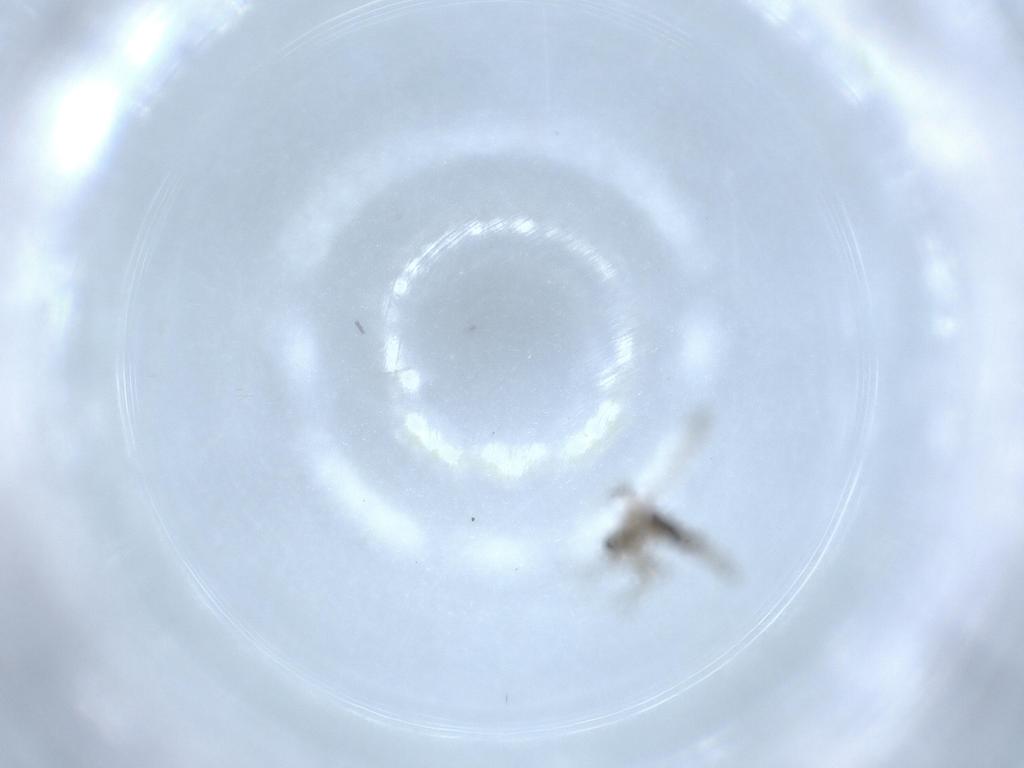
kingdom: Animalia
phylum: Arthropoda
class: Insecta
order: Diptera
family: Chironomidae
